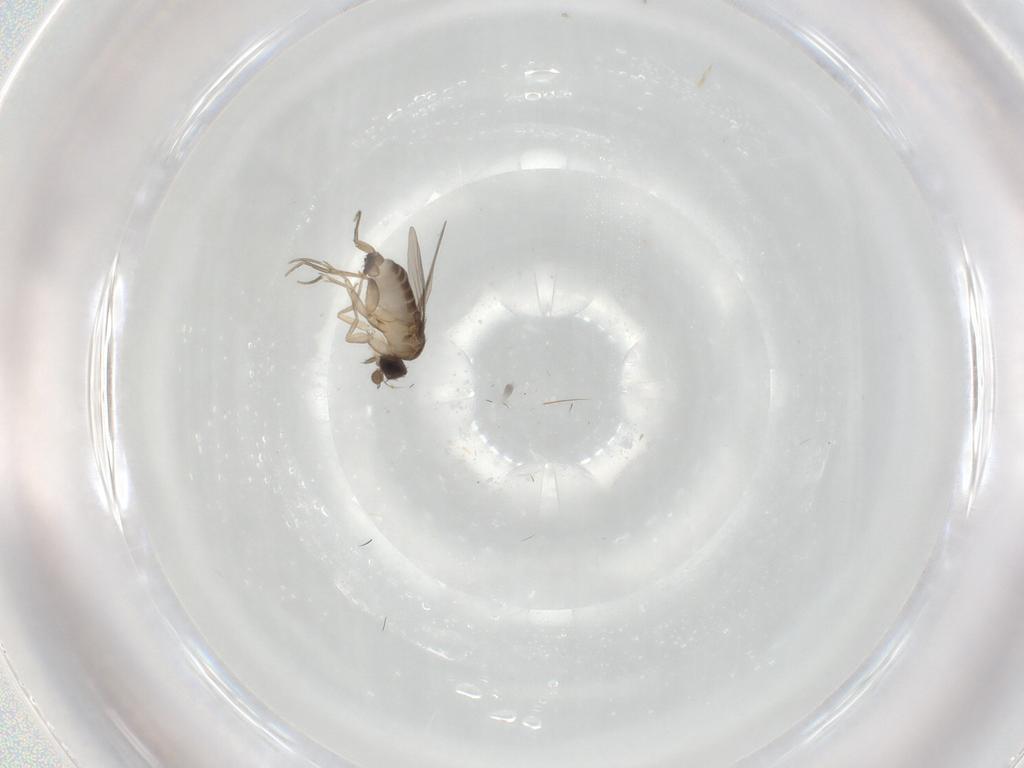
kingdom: Animalia
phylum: Arthropoda
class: Insecta
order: Diptera
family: Phoridae
